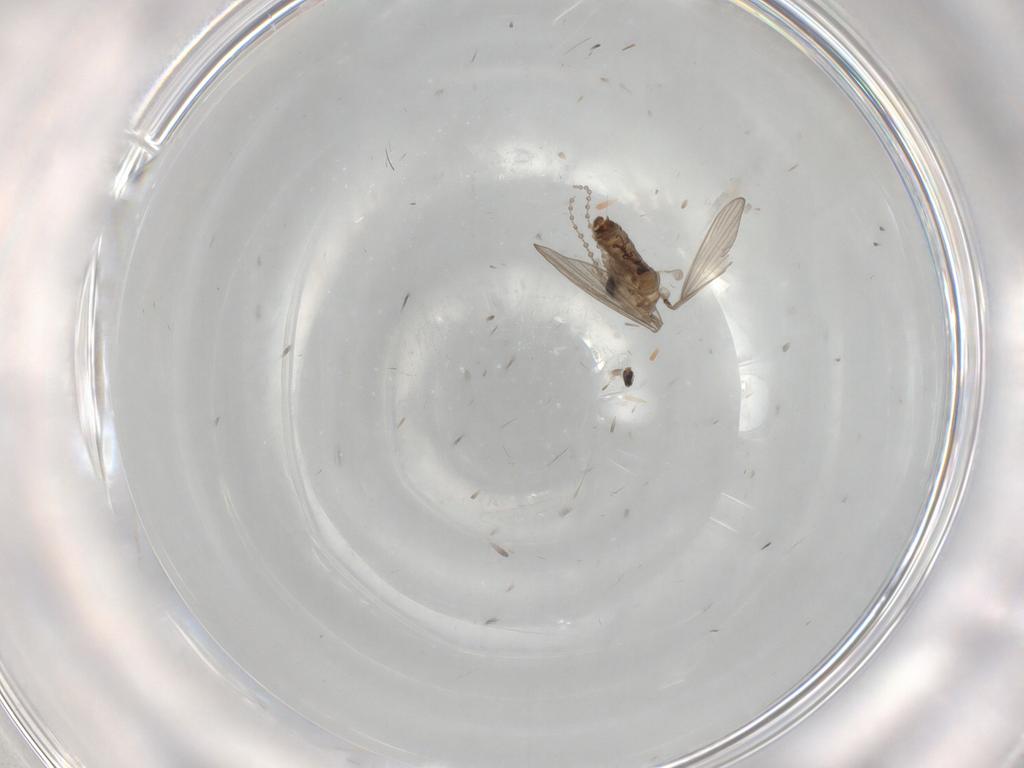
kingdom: Animalia
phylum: Arthropoda
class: Insecta
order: Diptera
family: Cecidomyiidae
